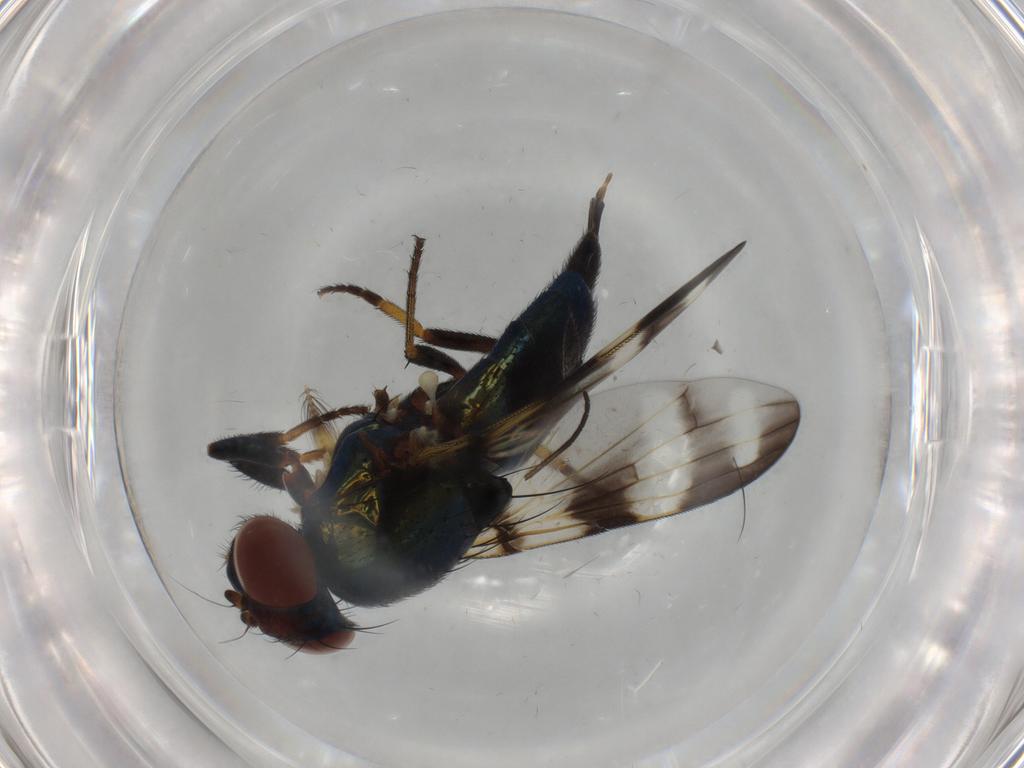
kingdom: Animalia
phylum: Arthropoda
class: Insecta
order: Diptera
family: Ulidiidae
